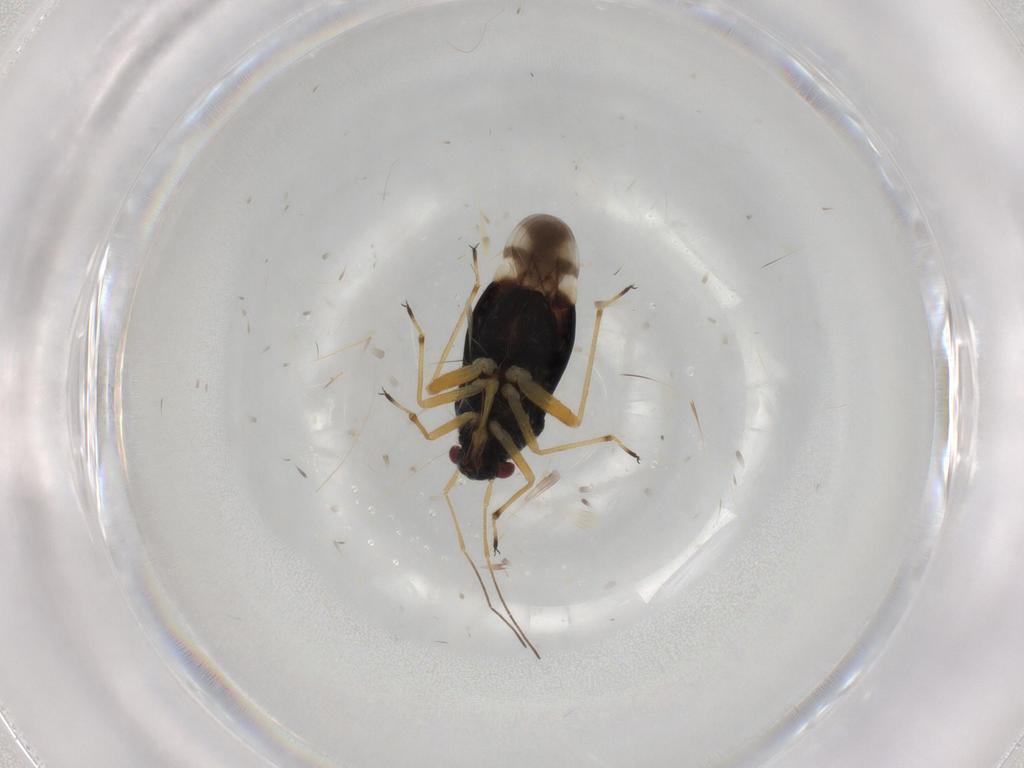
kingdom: Animalia
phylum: Arthropoda
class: Insecta
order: Hemiptera
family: Miridae
